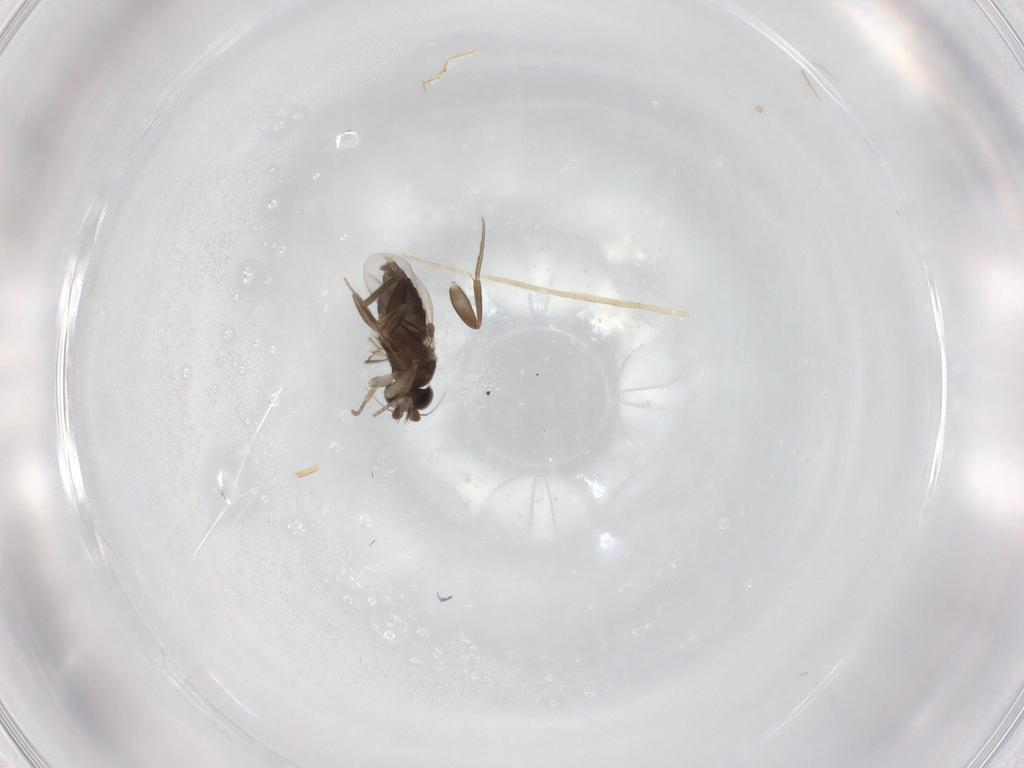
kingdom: Animalia
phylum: Arthropoda
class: Insecta
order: Diptera
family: Phoridae
